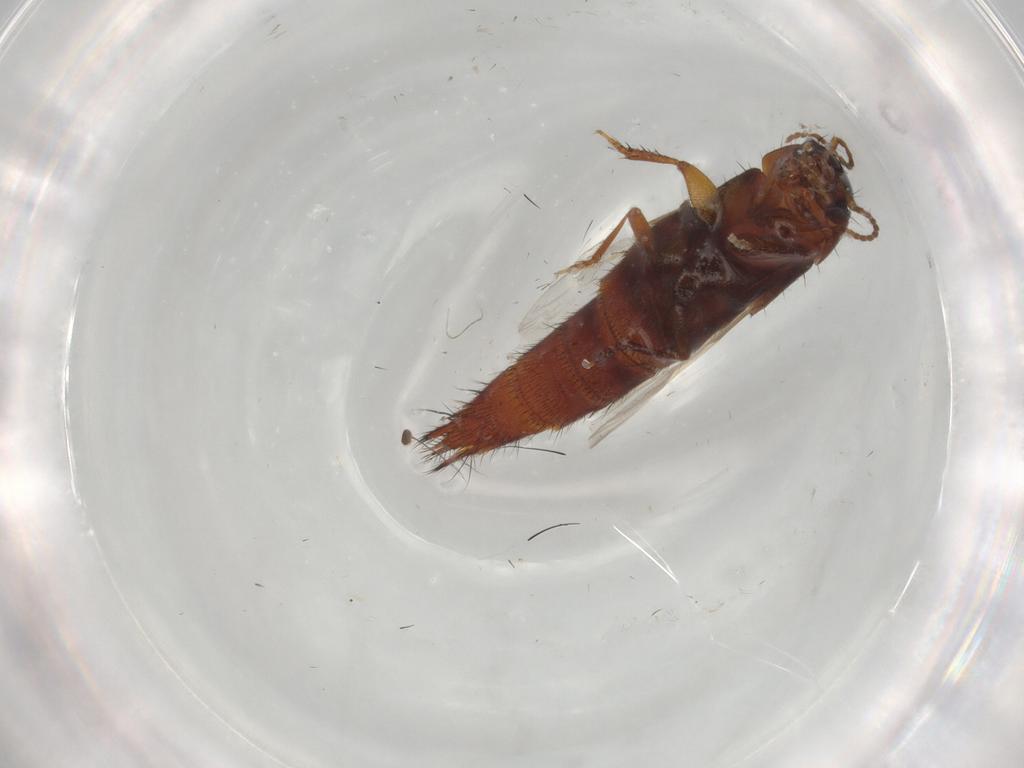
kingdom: Animalia
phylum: Arthropoda
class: Insecta
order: Coleoptera
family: Staphylinidae
